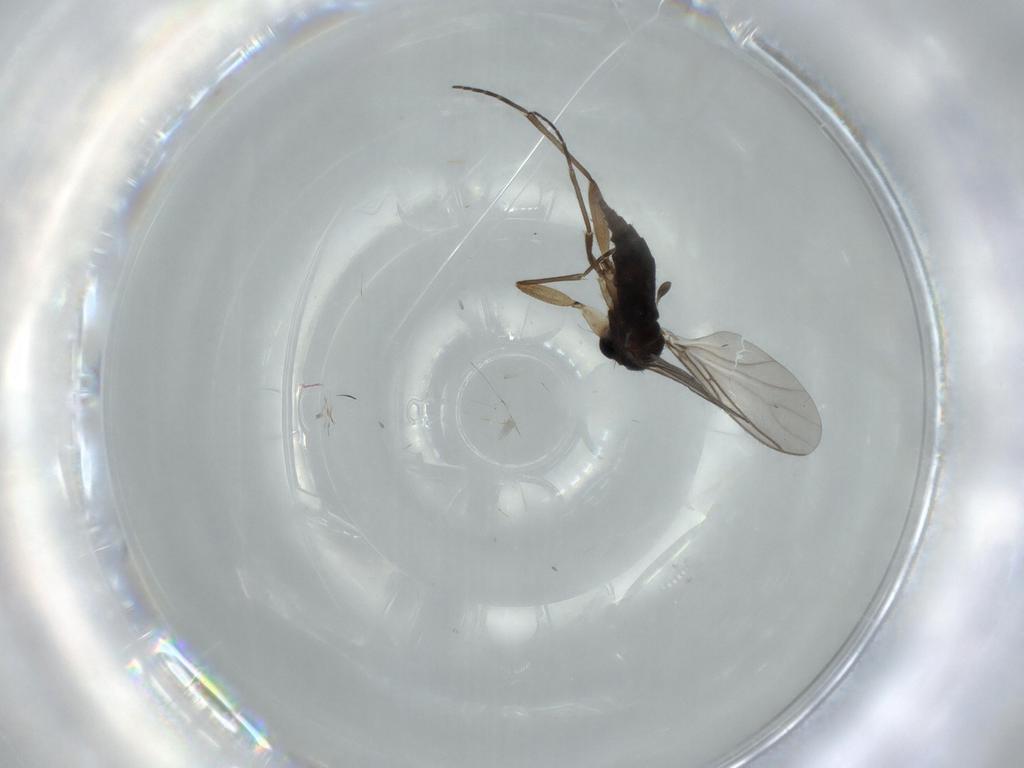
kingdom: Animalia
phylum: Arthropoda
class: Insecta
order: Diptera
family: Sciaridae
